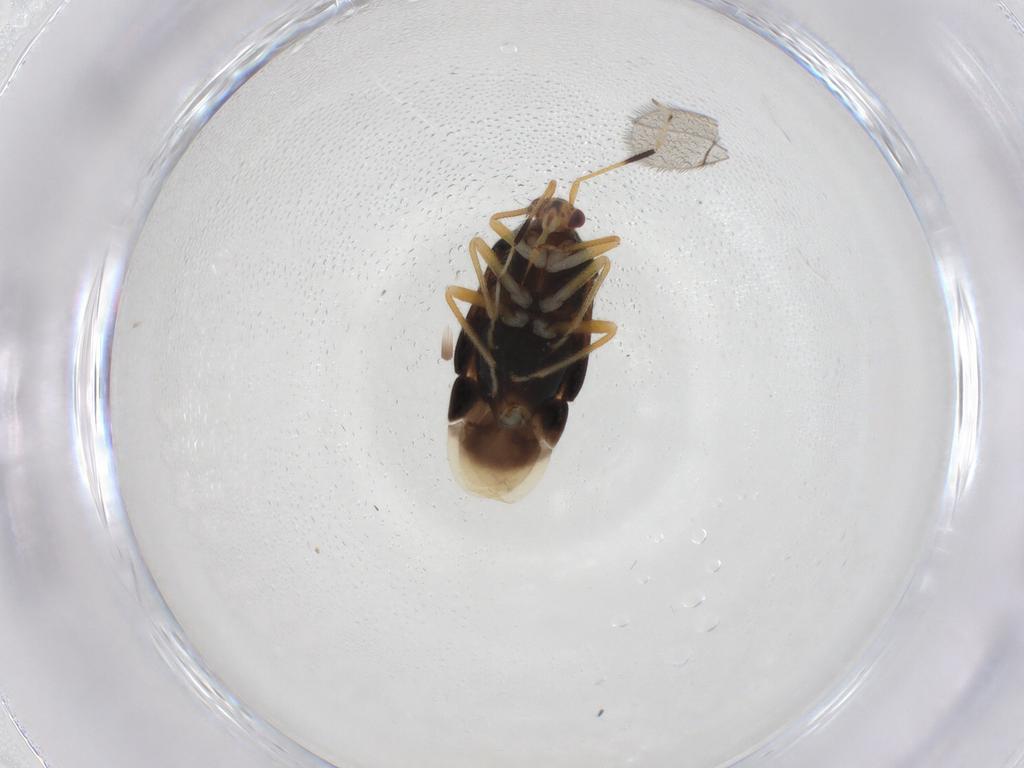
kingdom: Animalia
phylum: Arthropoda
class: Insecta
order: Hemiptera
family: Miridae
